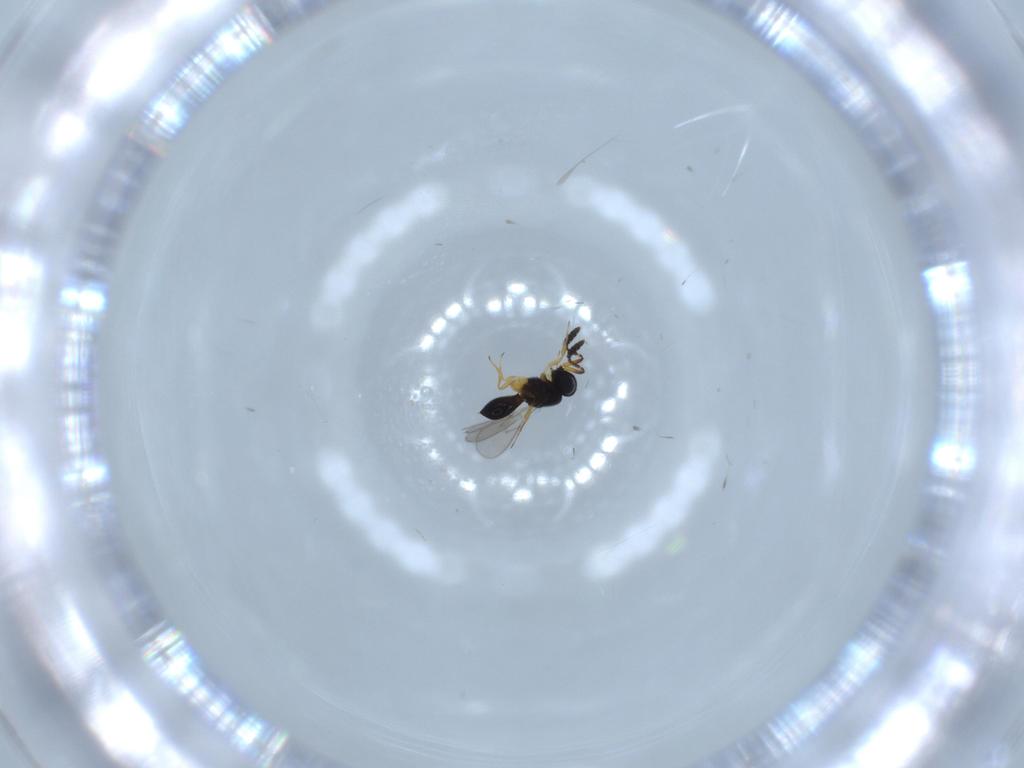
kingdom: Animalia
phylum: Arthropoda
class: Insecta
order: Hymenoptera
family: Scelionidae
